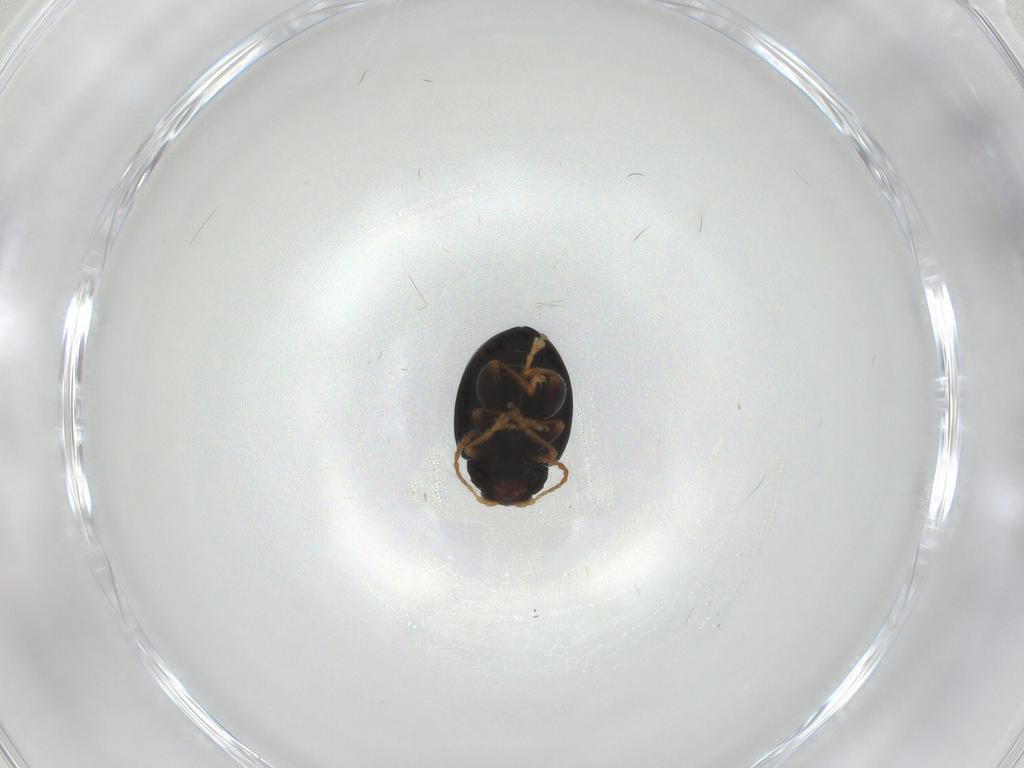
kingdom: Animalia
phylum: Arthropoda
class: Insecta
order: Coleoptera
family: Chrysomelidae
